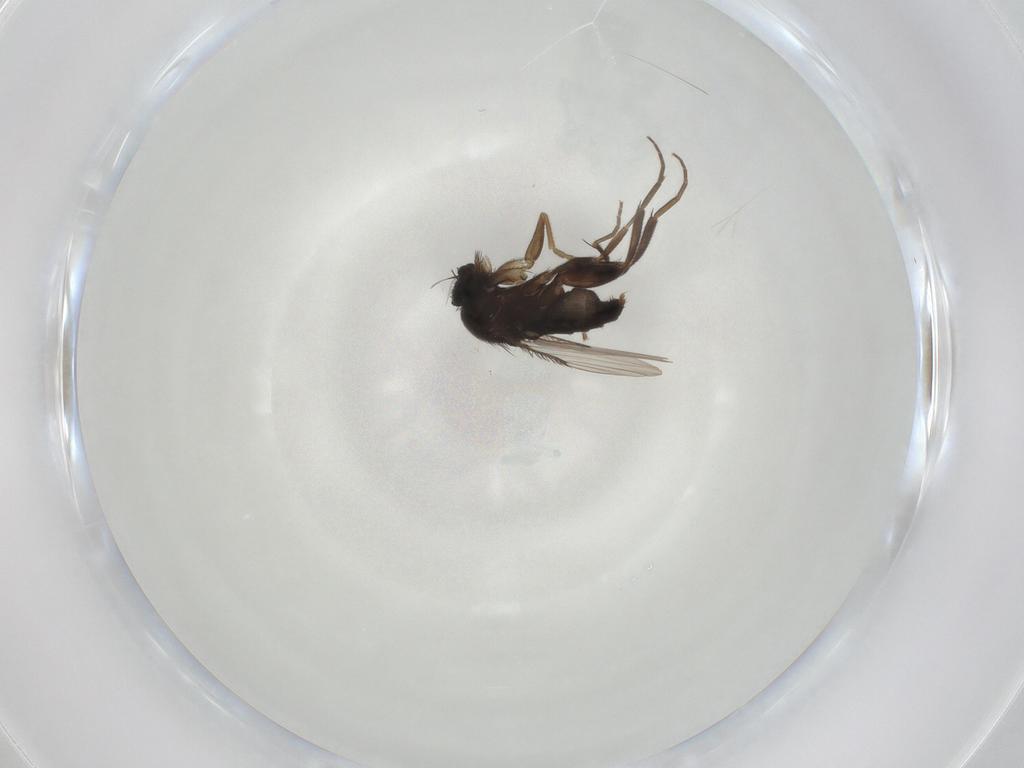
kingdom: Animalia
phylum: Arthropoda
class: Insecta
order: Diptera
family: Phoridae
